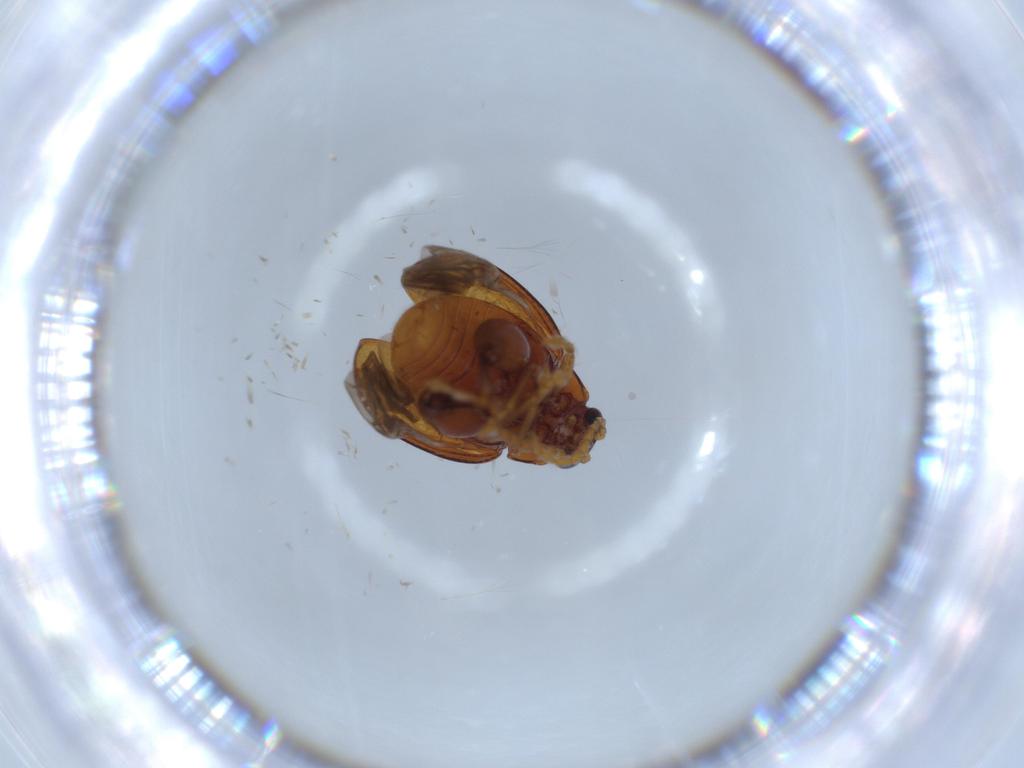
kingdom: Animalia
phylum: Arthropoda
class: Insecta
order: Coleoptera
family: Chrysomelidae
